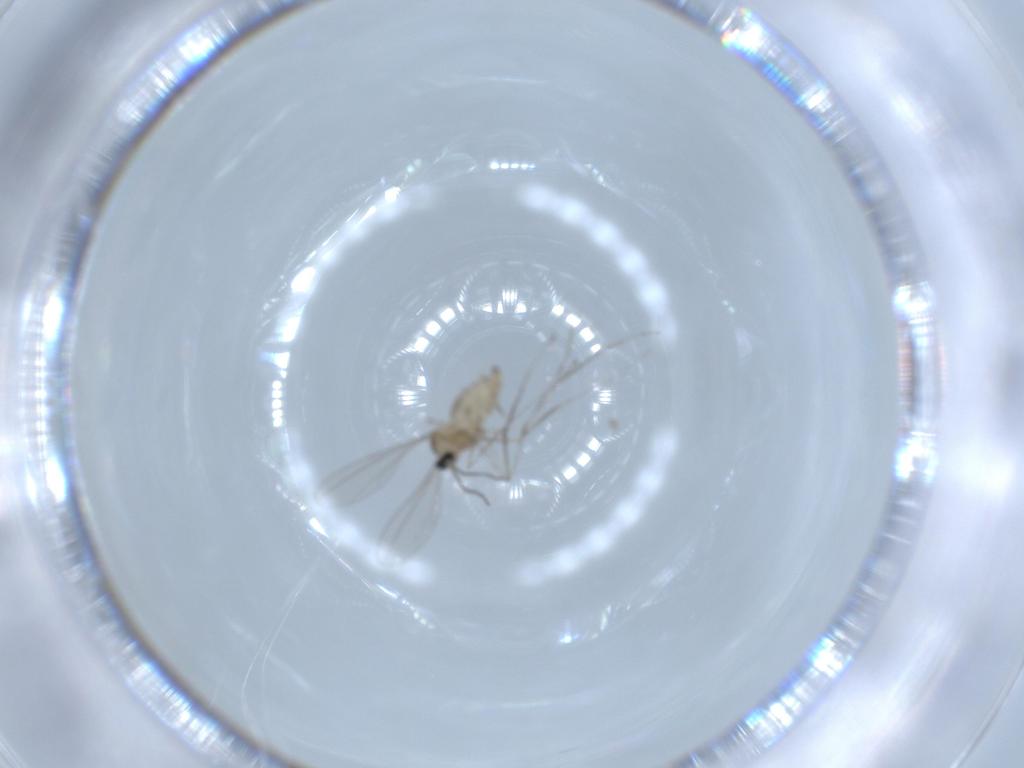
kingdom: Animalia
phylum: Arthropoda
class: Insecta
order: Diptera
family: Cecidomyiidae
